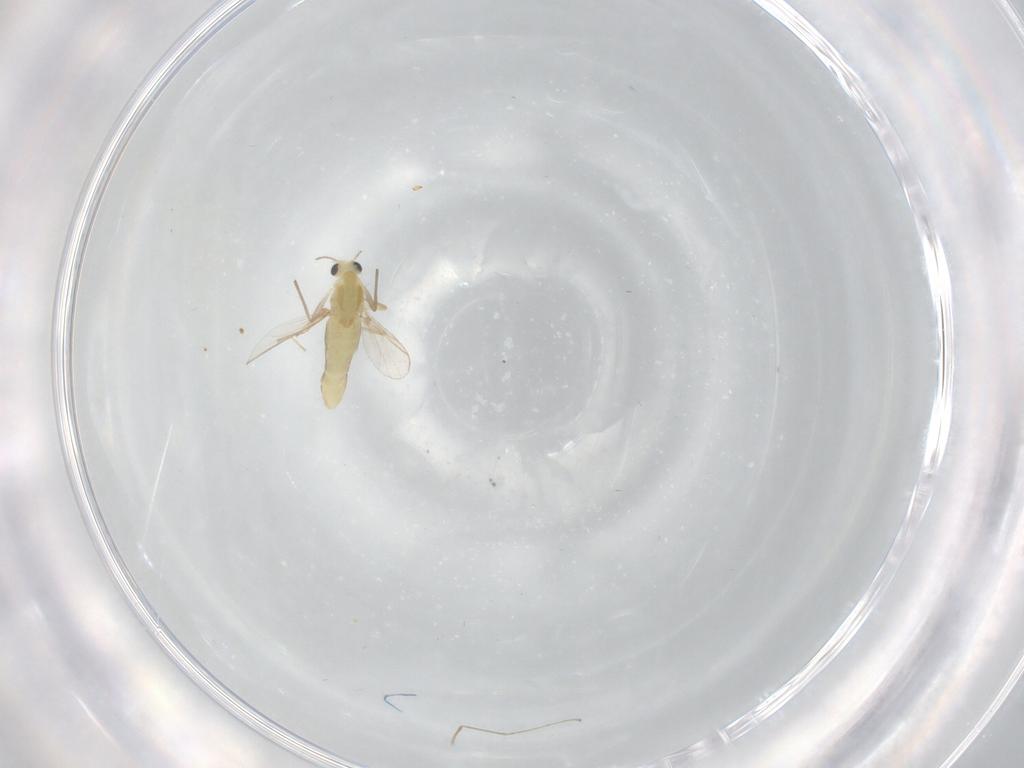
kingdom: Animalia
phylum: Arthropoda
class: Insecta
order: Diptera
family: Chironomidae
